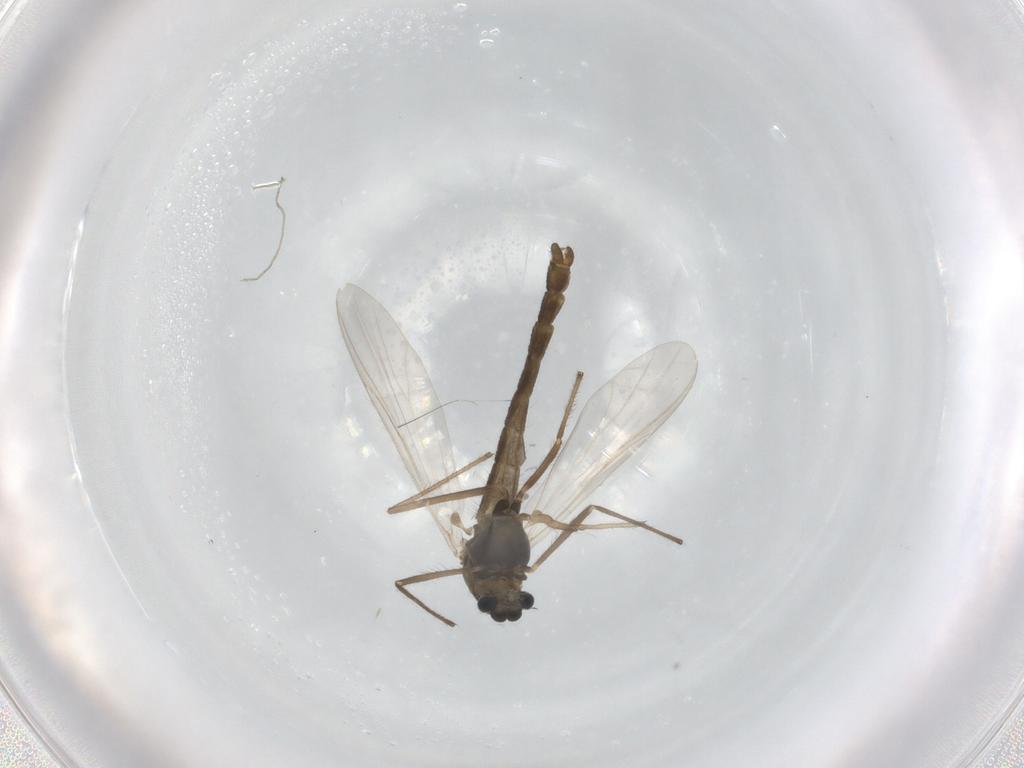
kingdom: Animalia
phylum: Arthropoda
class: Insecta
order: Diptera
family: Chironomidae
